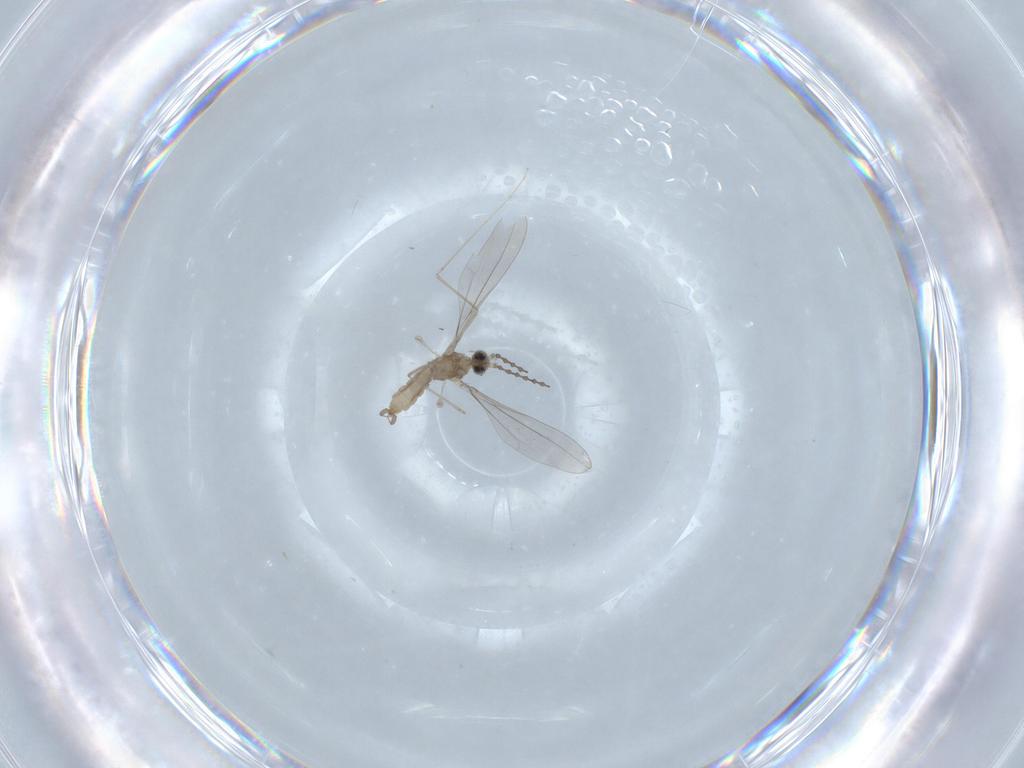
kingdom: Animalia
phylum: Arthropoda
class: Insecta
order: Diptera
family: Cecidomyiidae
